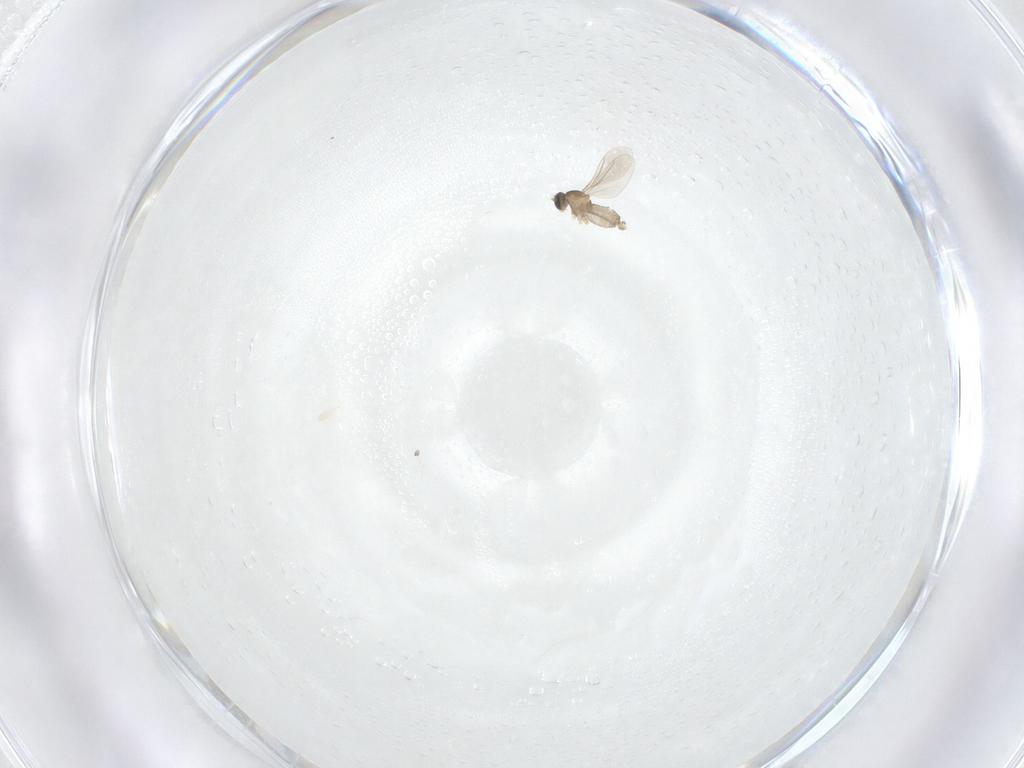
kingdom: Animalia
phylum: Arthropoda
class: Insecta
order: Diptera
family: Cecidomyiidae
